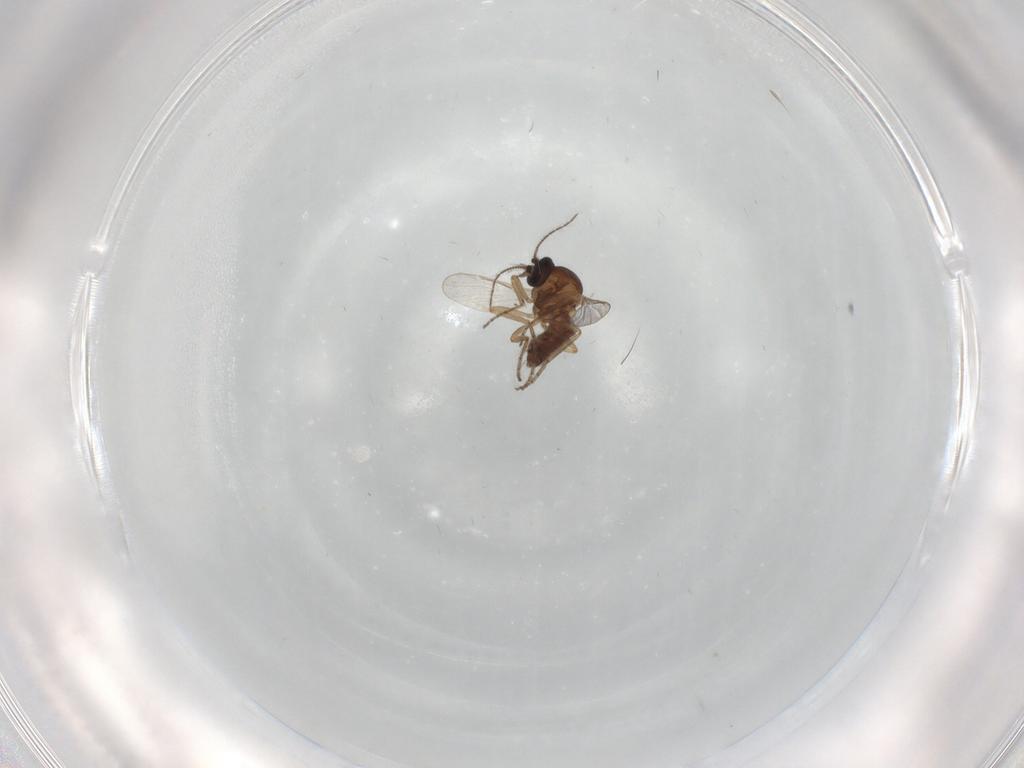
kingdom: Animalia
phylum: Arthropoda
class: Insecta
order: Diptera
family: Cecidomyiidae
